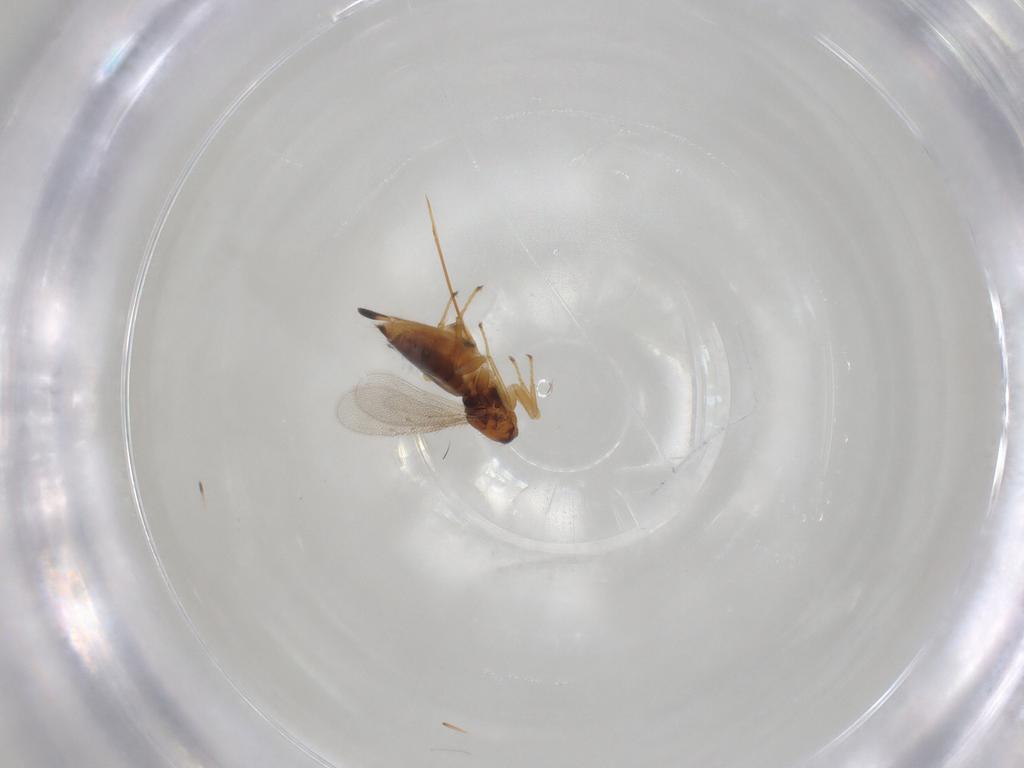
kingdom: Animalia
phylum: Arthropoda
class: Insecta
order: Hymenoptera
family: Eulophidae
